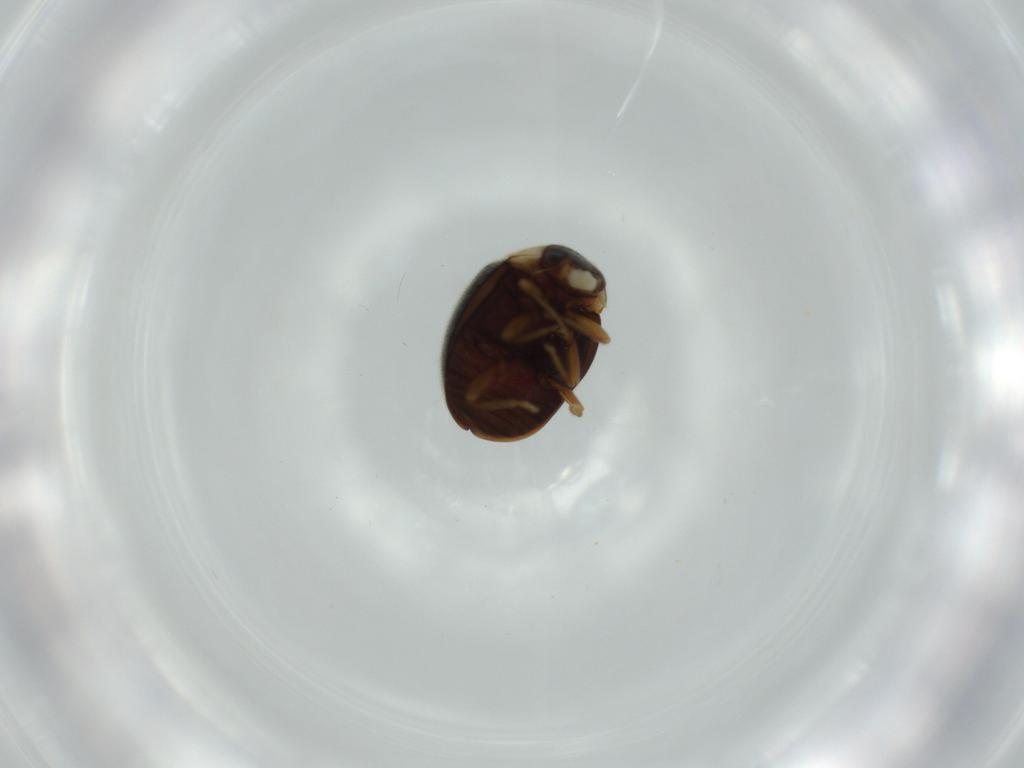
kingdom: Animalia
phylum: Arthropoda
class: Insecta
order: Coleoptera
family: Coccinellidae
